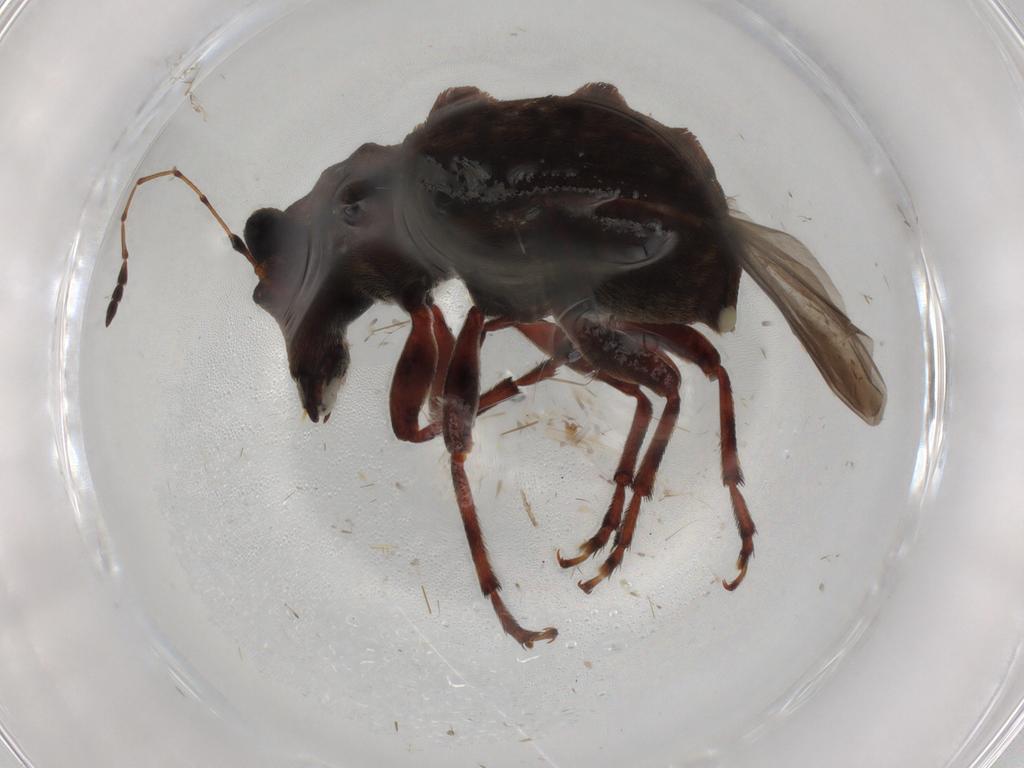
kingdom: Animalia
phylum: Arthropoda
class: Insecta
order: Coleoptera
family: Anthribidae
